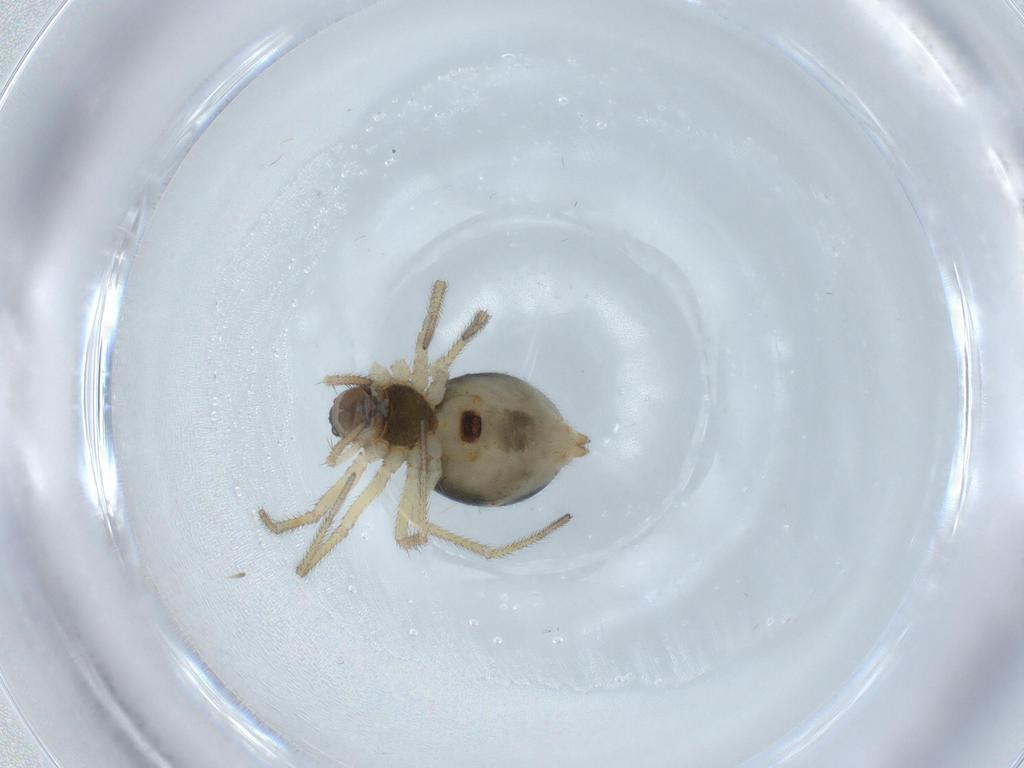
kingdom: Animalia
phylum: Arthropoda
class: Arachnida
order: Araneae
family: Linyphiidae
